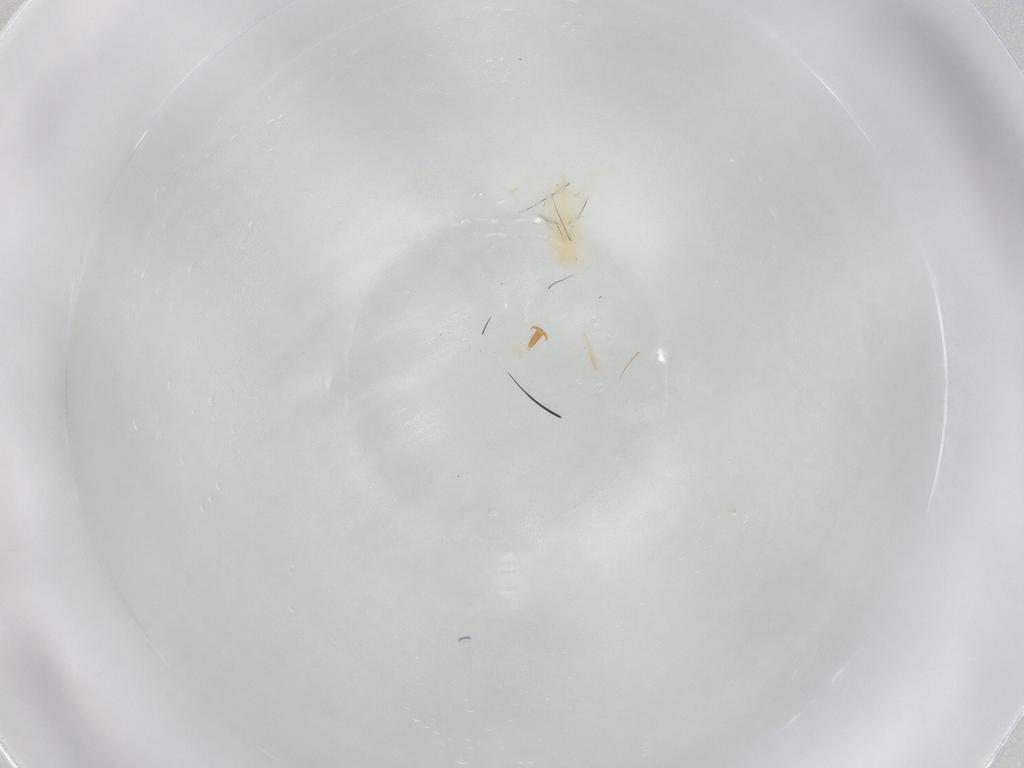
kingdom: Animalia
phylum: Arthropoda
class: Insecta
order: Coleoptera
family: Carabidae
